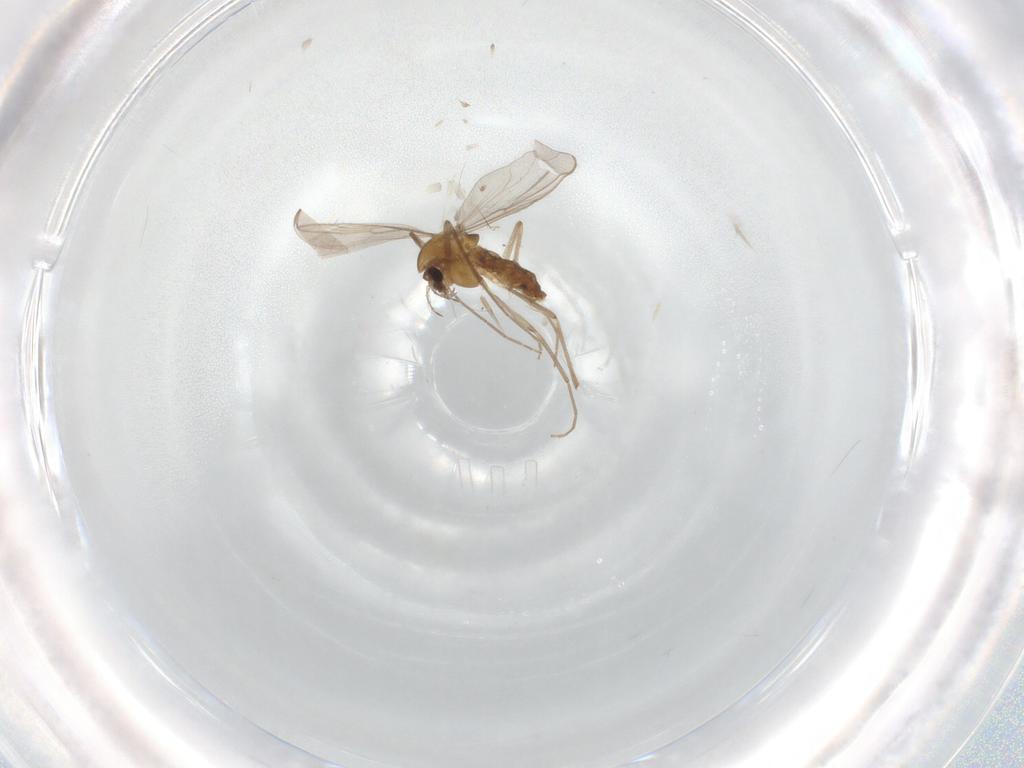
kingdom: Animalia
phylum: Arthropoda
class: Insecta
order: Diptera
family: Chironomidae
